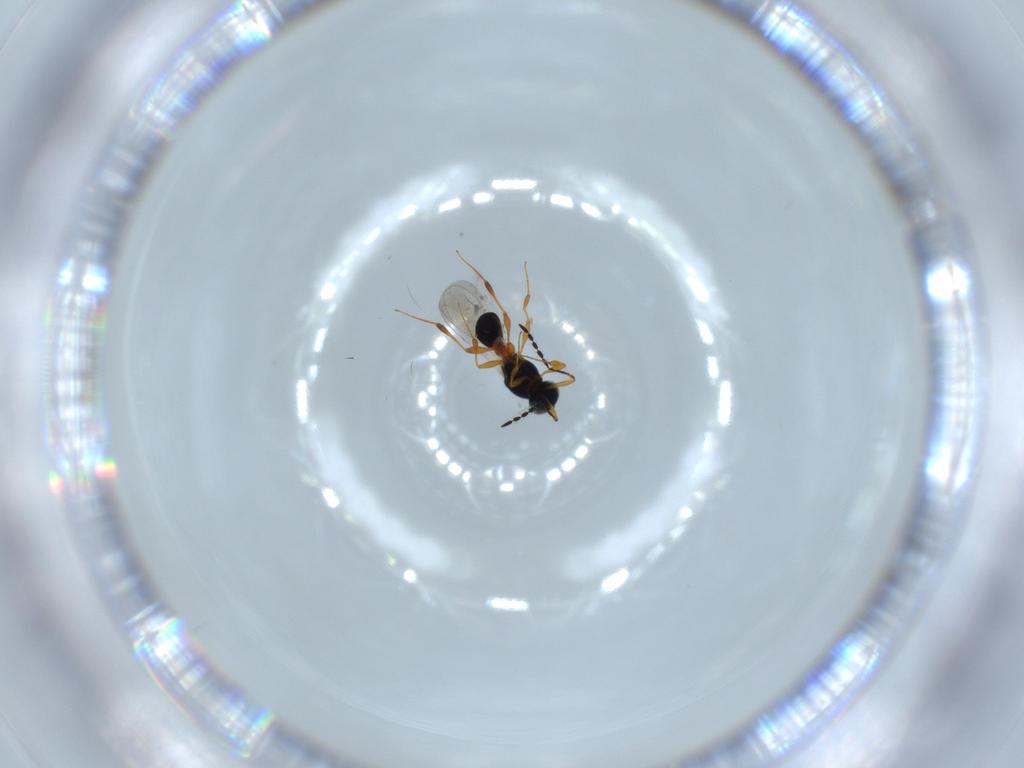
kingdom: Animalia
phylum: Arthropoda
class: Insecta
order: Hymenoptera
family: Platygastridae
